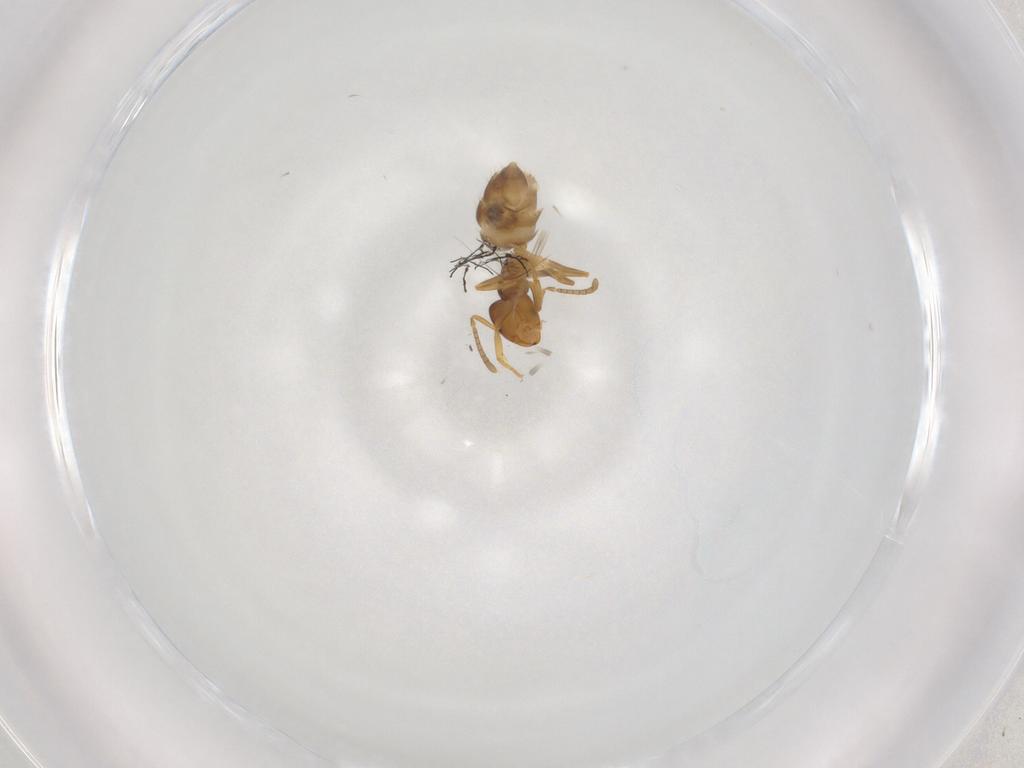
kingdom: Animalia
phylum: Arthropoda
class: Insecta
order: Hymenoptera
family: Formicidae
